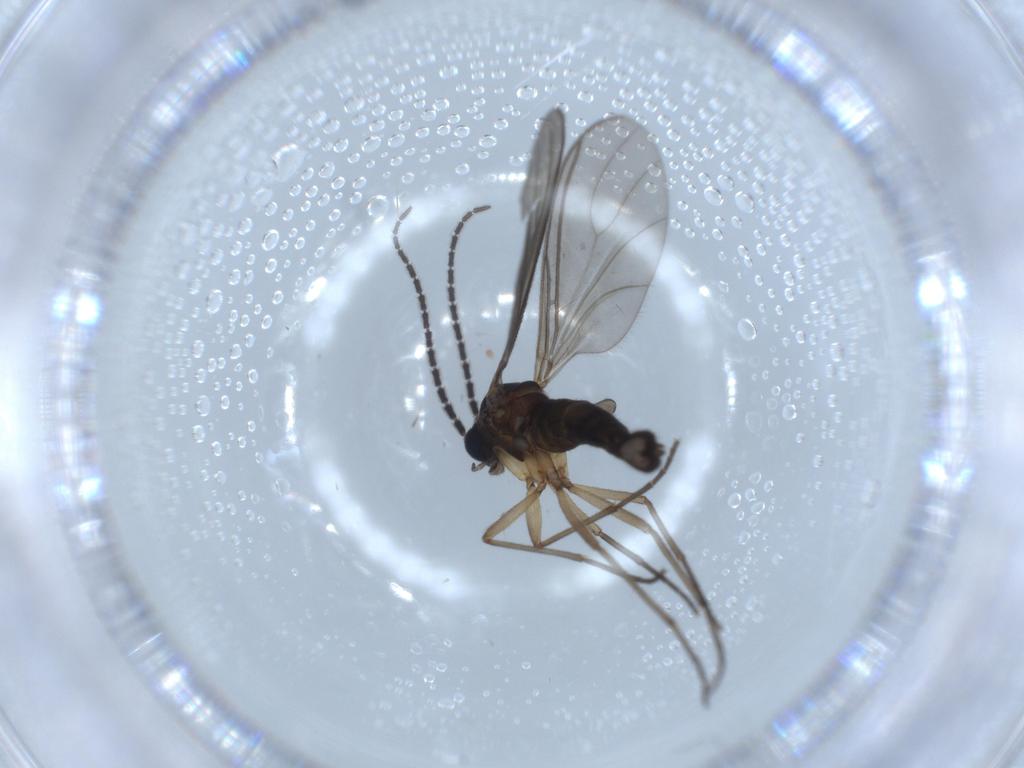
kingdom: Animalia
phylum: Arthropoda
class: Insecta
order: Diptera
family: Sciaridae
